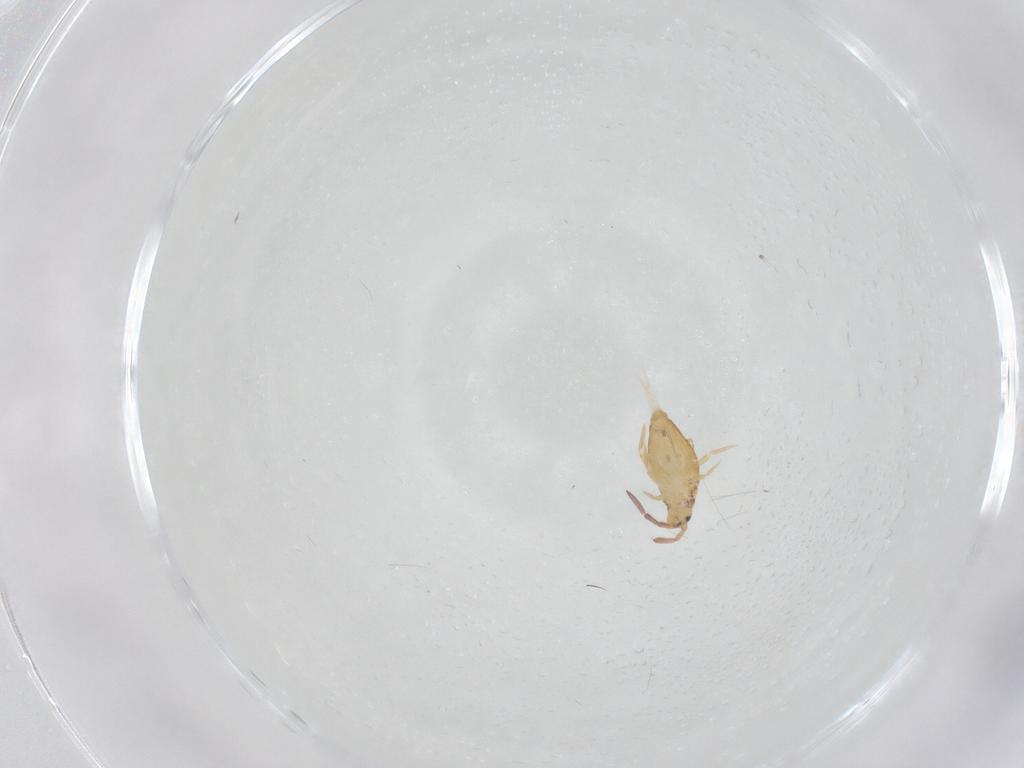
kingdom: Animalia
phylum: Arthropoda
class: Collembola
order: Entomobryomorpha
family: Entomobryidae
